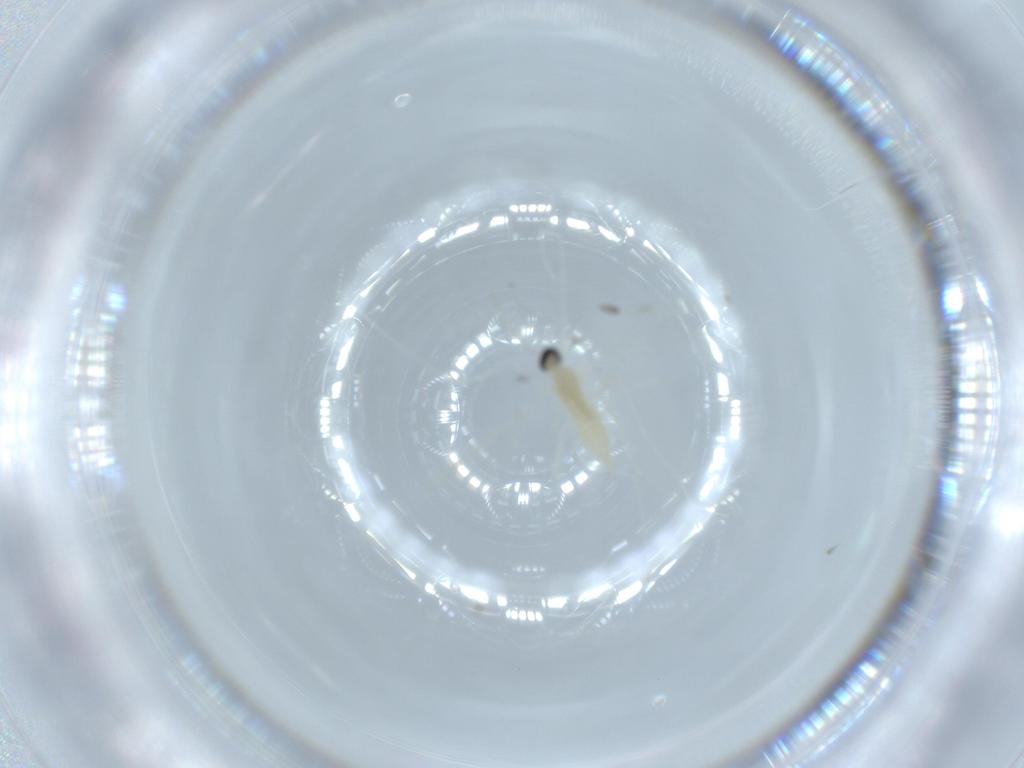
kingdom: Animalia
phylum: Arthropoda
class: Insecta
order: Diptera
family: Cecidomyiidae
